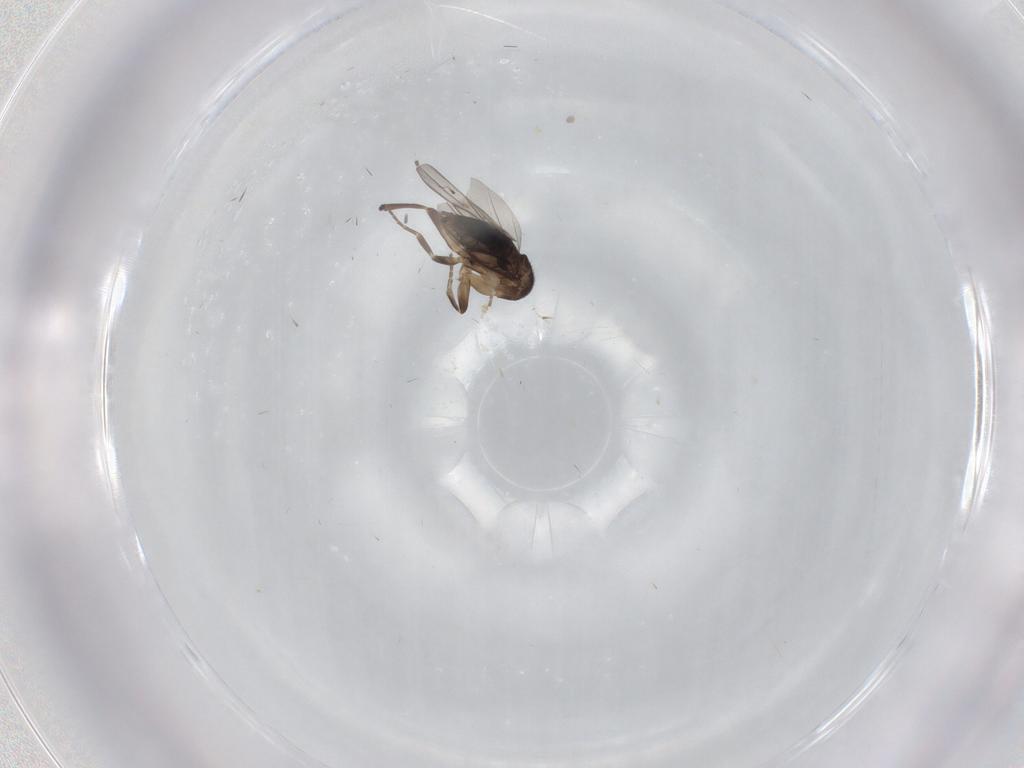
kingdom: Animalia
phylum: Arthropoda
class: Insecta
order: Diptera
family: Phoridae
